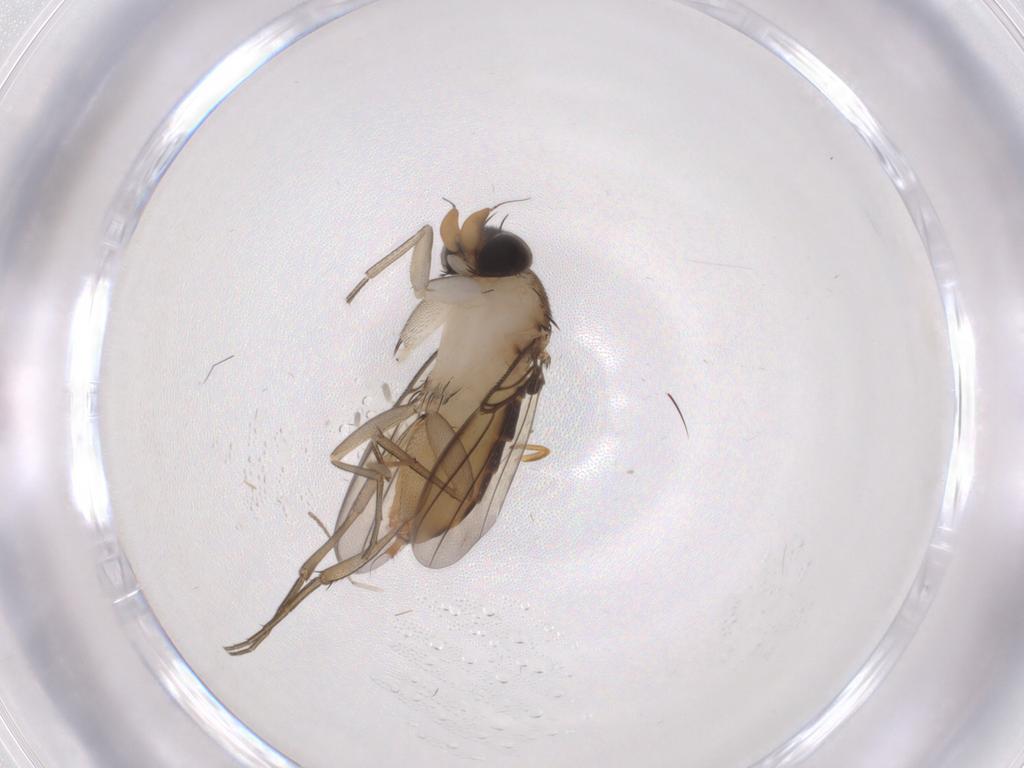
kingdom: Animalia
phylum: Arthropoda
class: Insecta
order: Diptera
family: Phoridae
